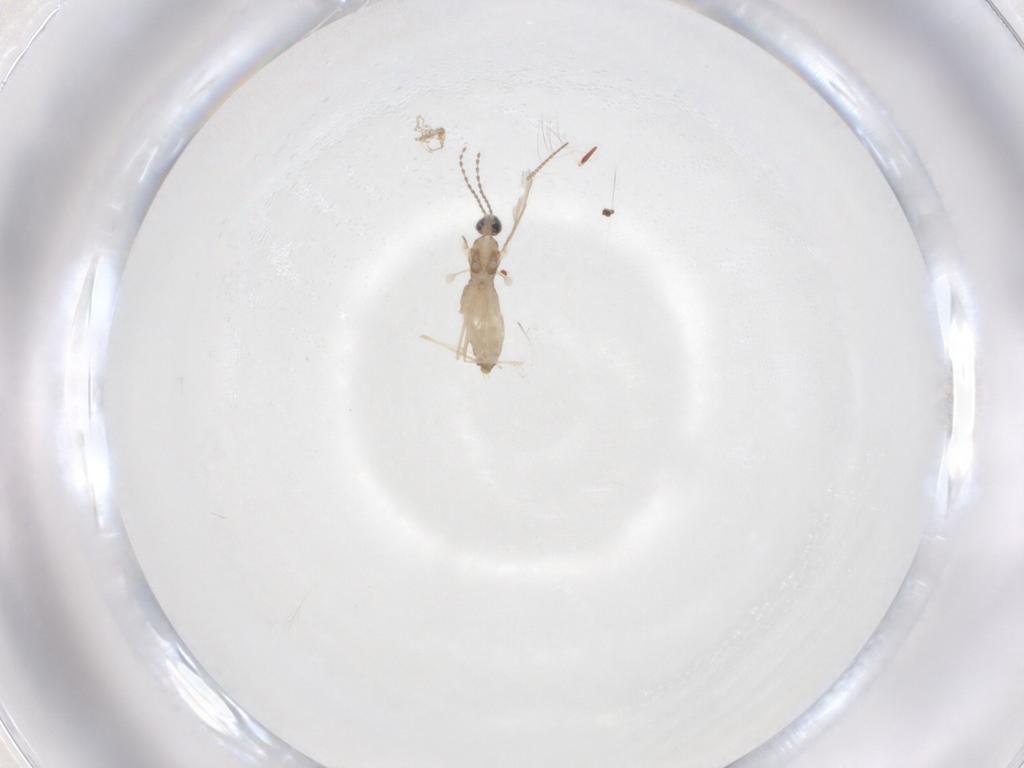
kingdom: Animalia
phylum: Arthropoda
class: Insecta
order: Diptera
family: Cecidomyiidae
